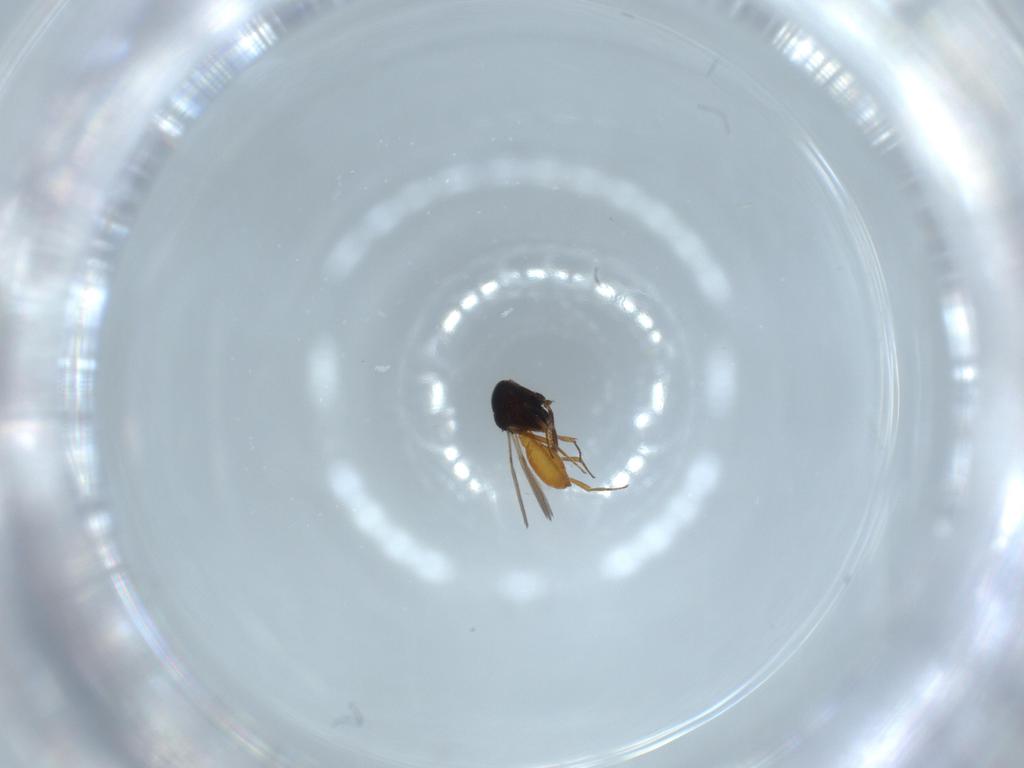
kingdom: Animalia
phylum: Arthropoda
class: Insecta
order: Hymenoptera
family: Scelionidae
